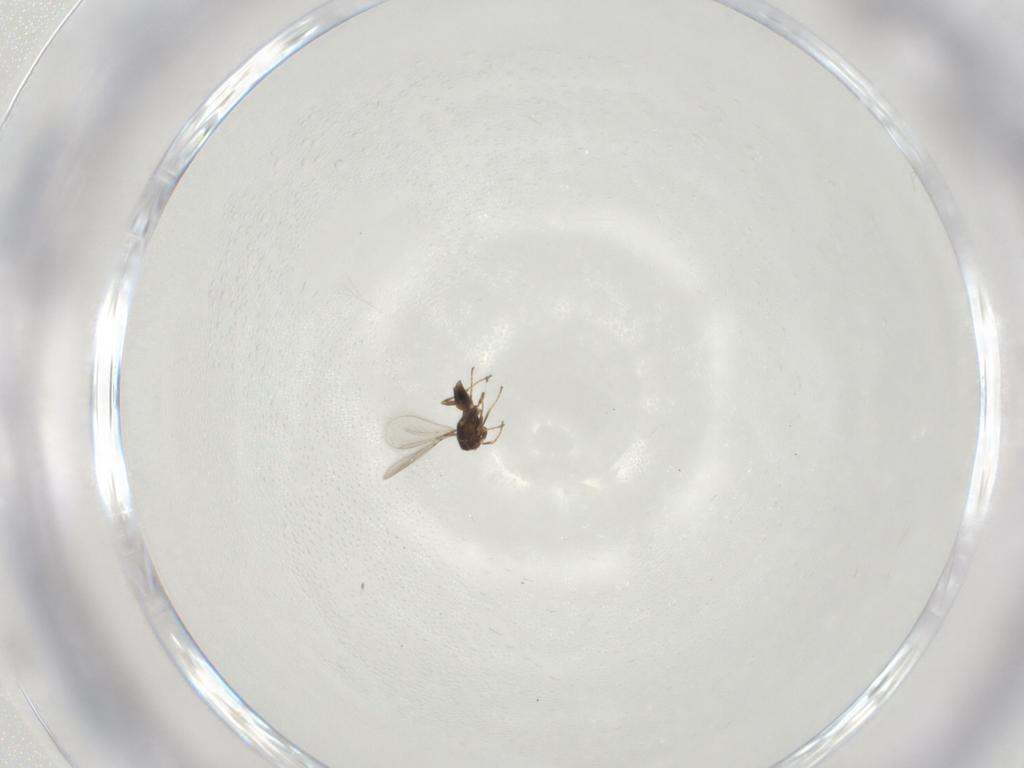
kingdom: Animalia
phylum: Arthropoda
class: Insecta
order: Hymenoptera
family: Mymaridae
